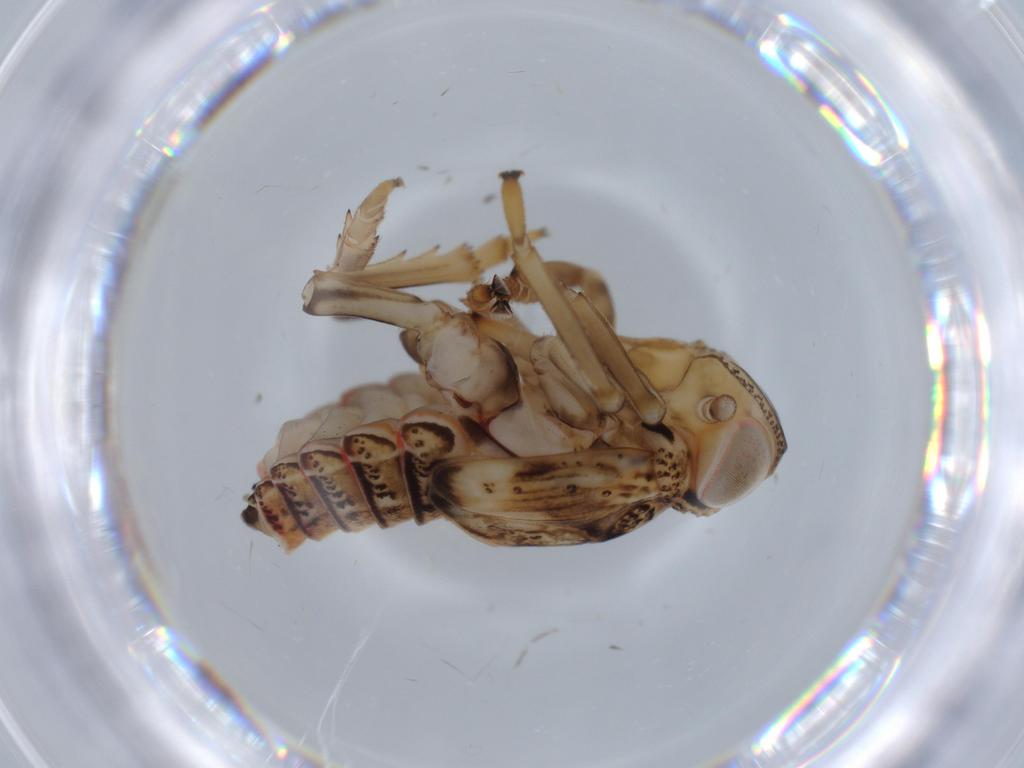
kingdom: Animalia
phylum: Arthropoda
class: Insecta
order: Hemiptera
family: Issidae
